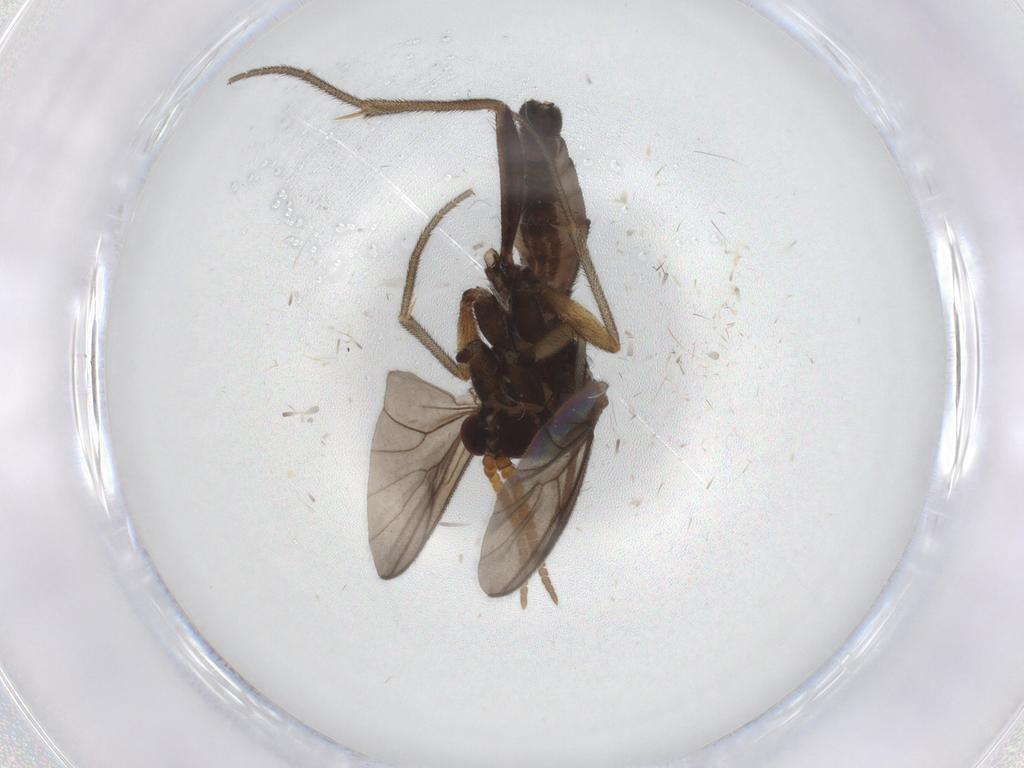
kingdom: Animalia
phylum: Arthropoda
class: Insecta
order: Diptera
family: Mycetophilidae
